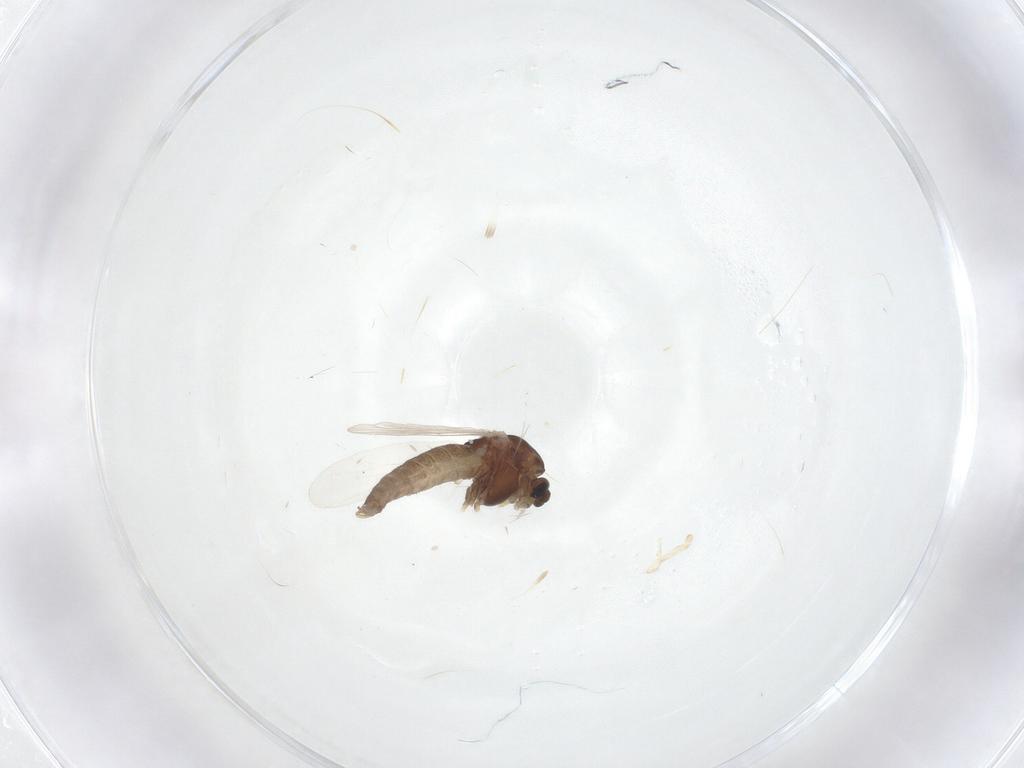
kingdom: Animalia
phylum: Arthropoda
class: Insecta
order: Diptera
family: Chironomidae
